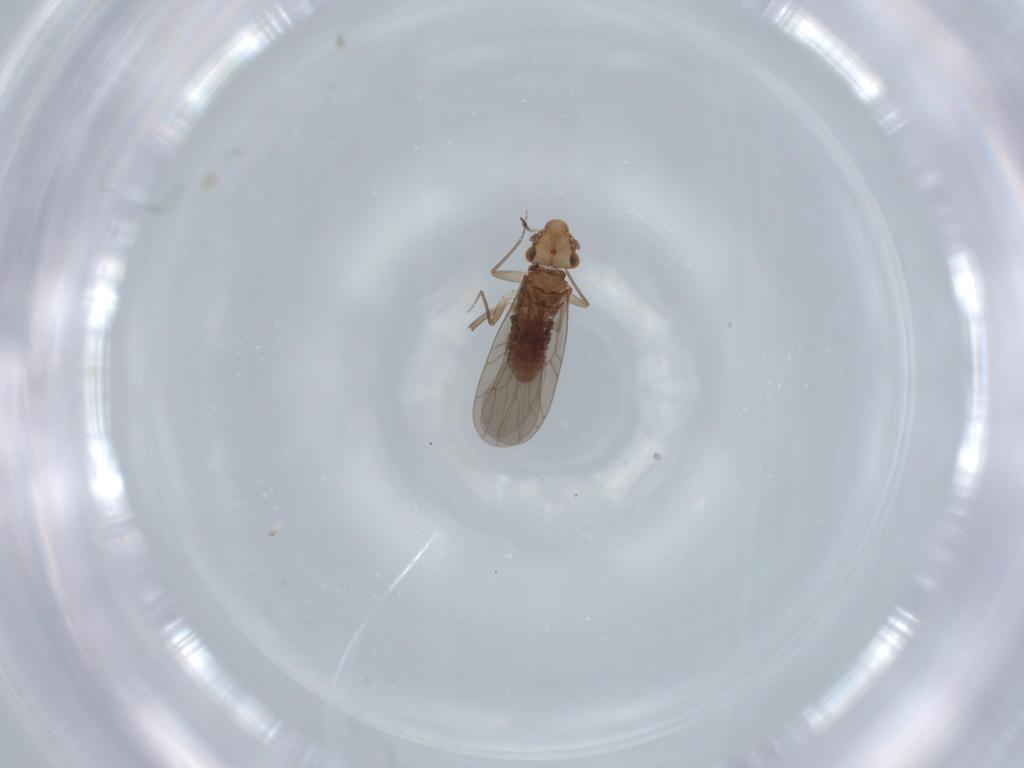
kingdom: Animalia
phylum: Arthropoda
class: Insecta
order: Psocodea
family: Lepidopsocidae
